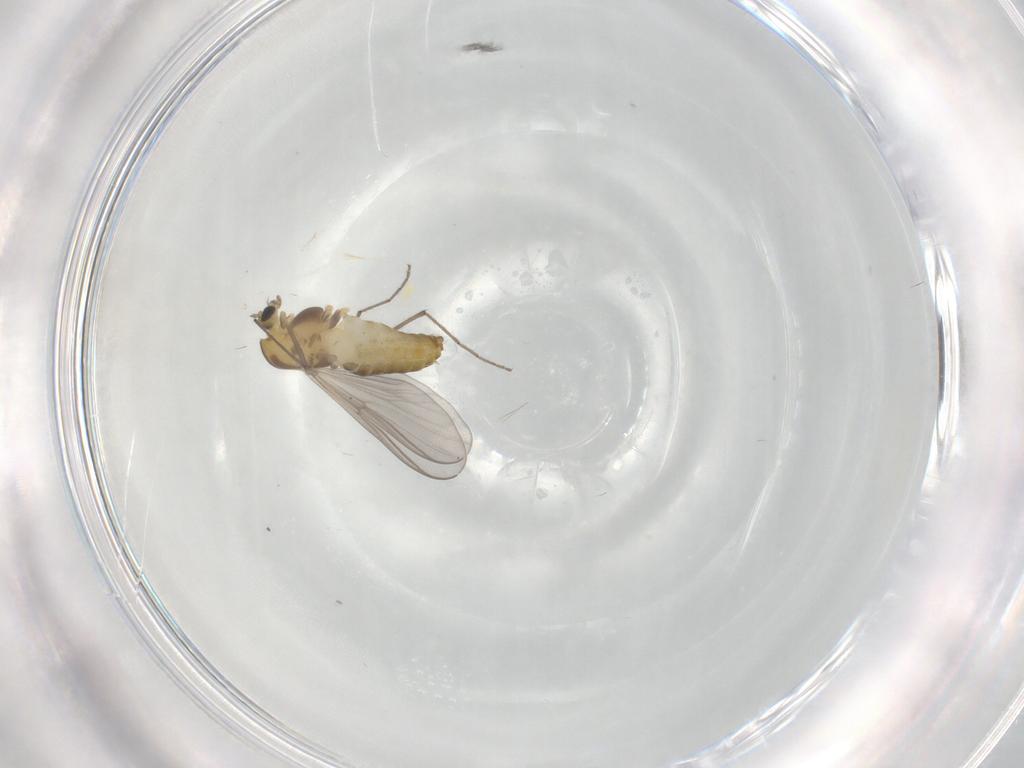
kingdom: Animalia
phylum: Arthropoda
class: Insecta
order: Diptera
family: Chironomidae
